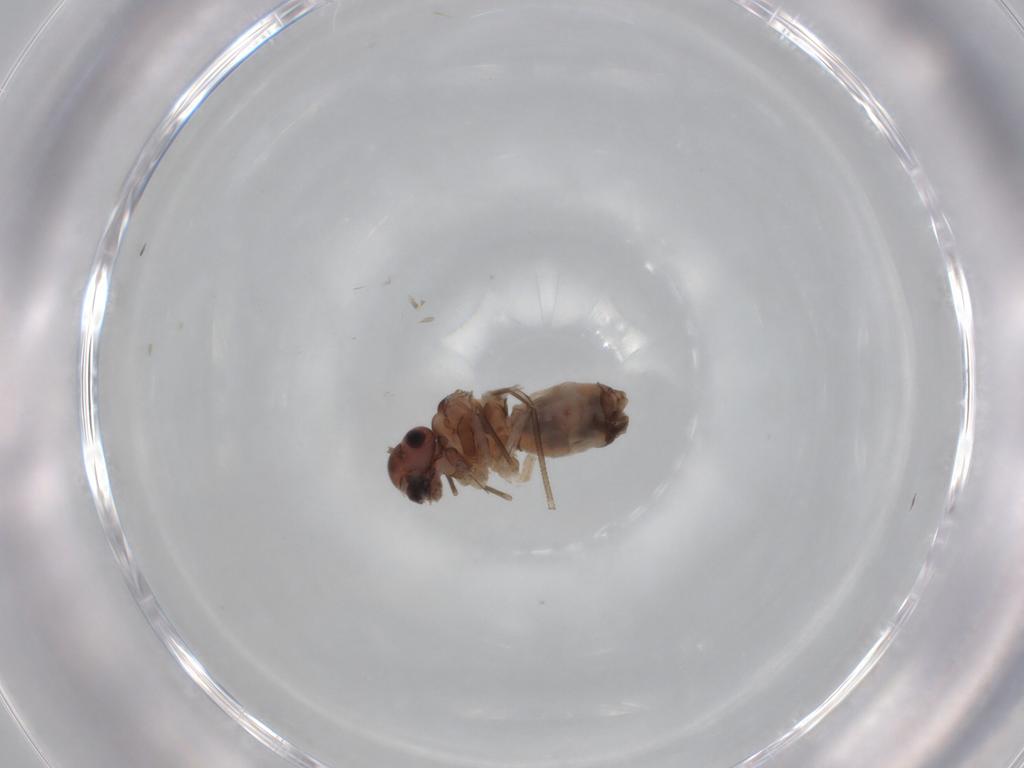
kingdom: Animalia
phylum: Arthropoda
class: Insecta
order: Psocodea
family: Peripsocidae
